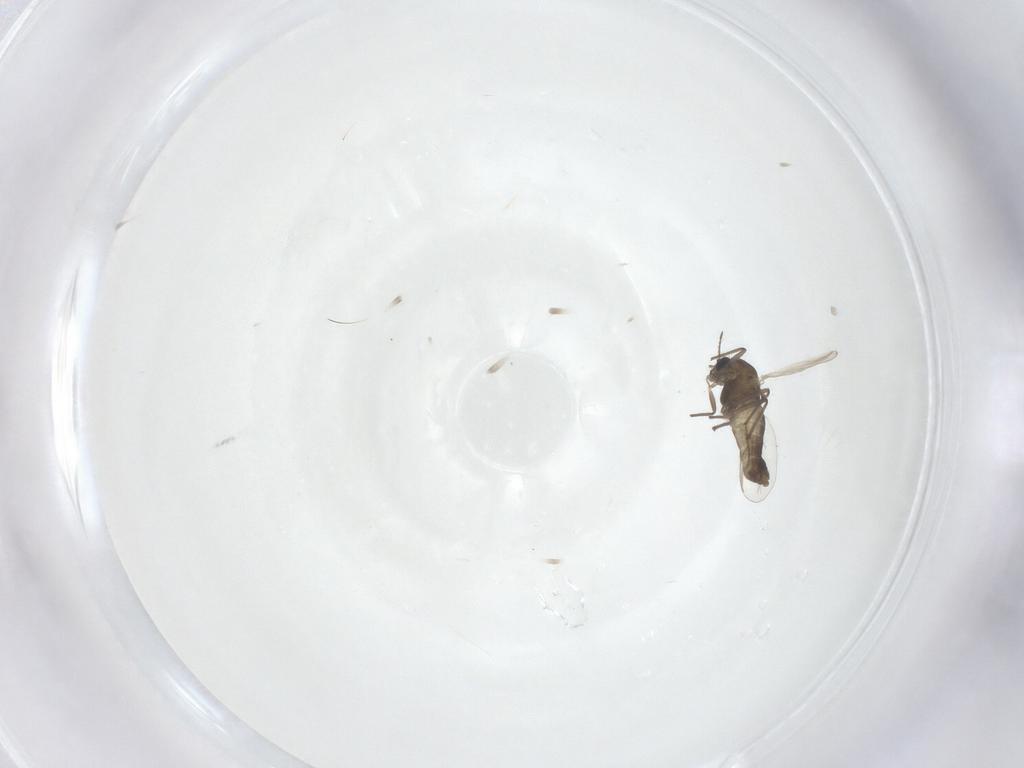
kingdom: Animalia
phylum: Arthropoda
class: Insecta
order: Diptera
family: Chironomidae
